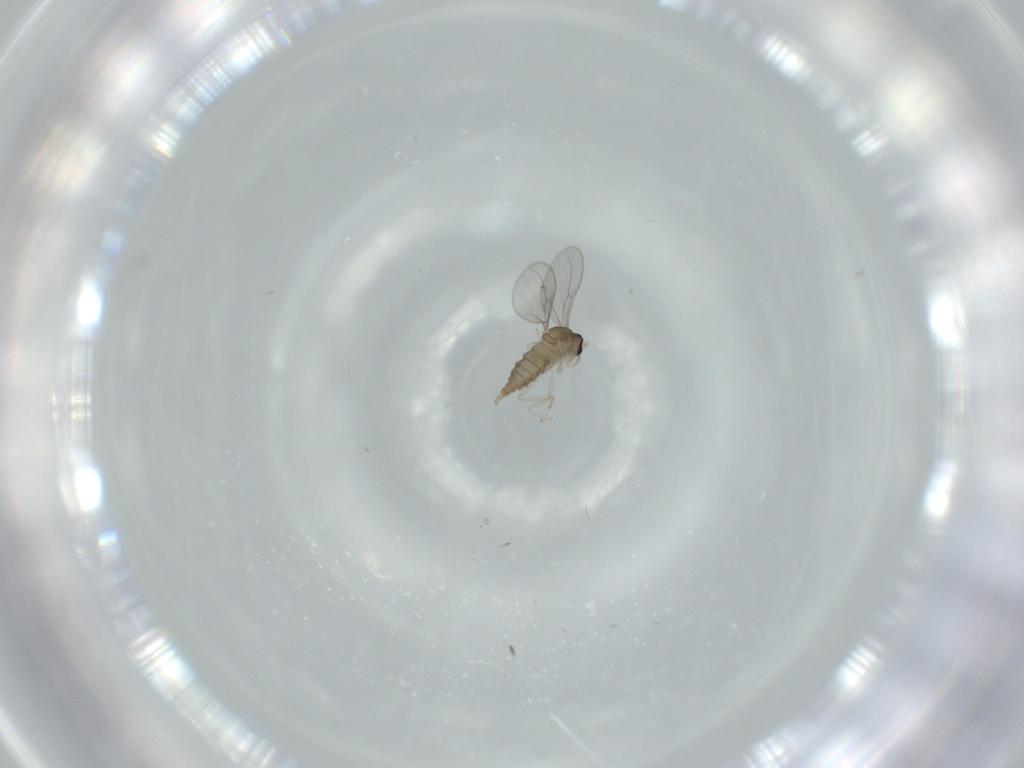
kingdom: Animalia
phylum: Arthropoda
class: Insecta
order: Diptera
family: Cecidomyiidae
